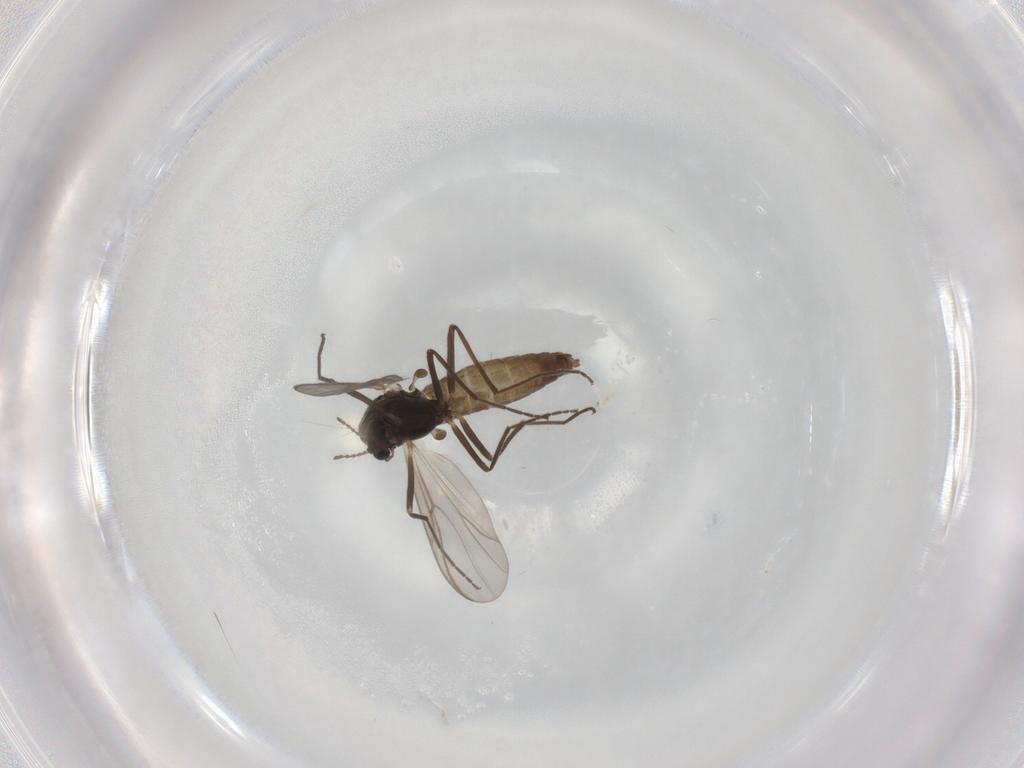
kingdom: Animalia
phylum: Arthropoda
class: Insecta
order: Diptera
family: Chironomidae
